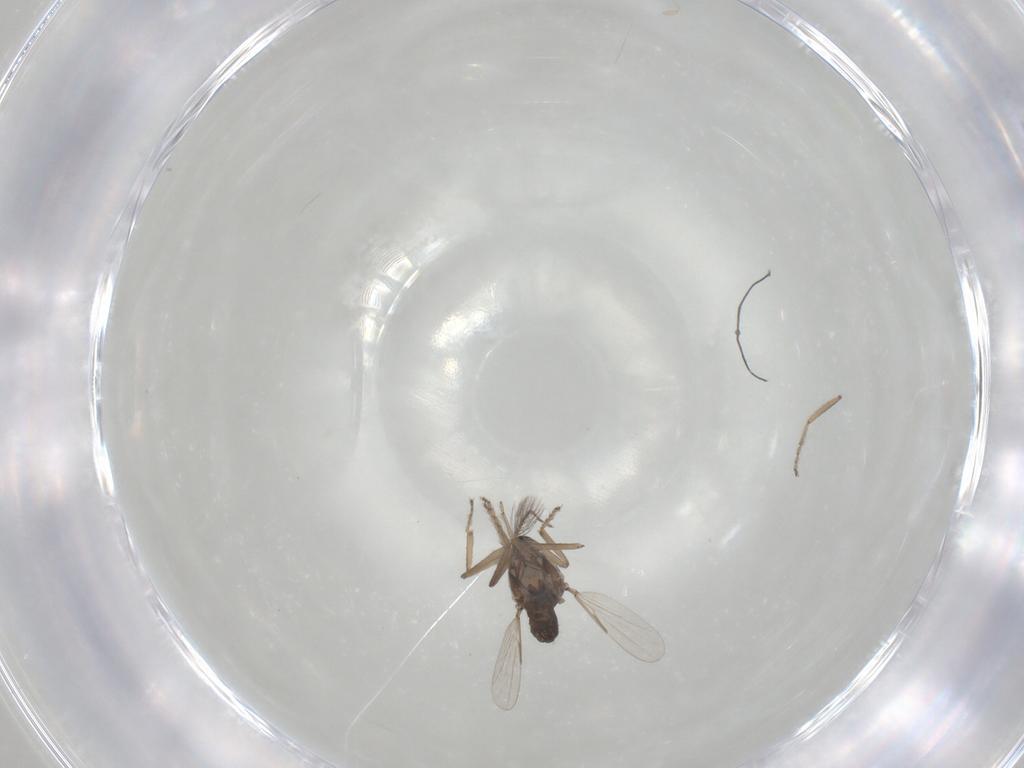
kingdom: Animalia
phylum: Arthropoda
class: Insecta
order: Diptera
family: Ceratopogonidae
